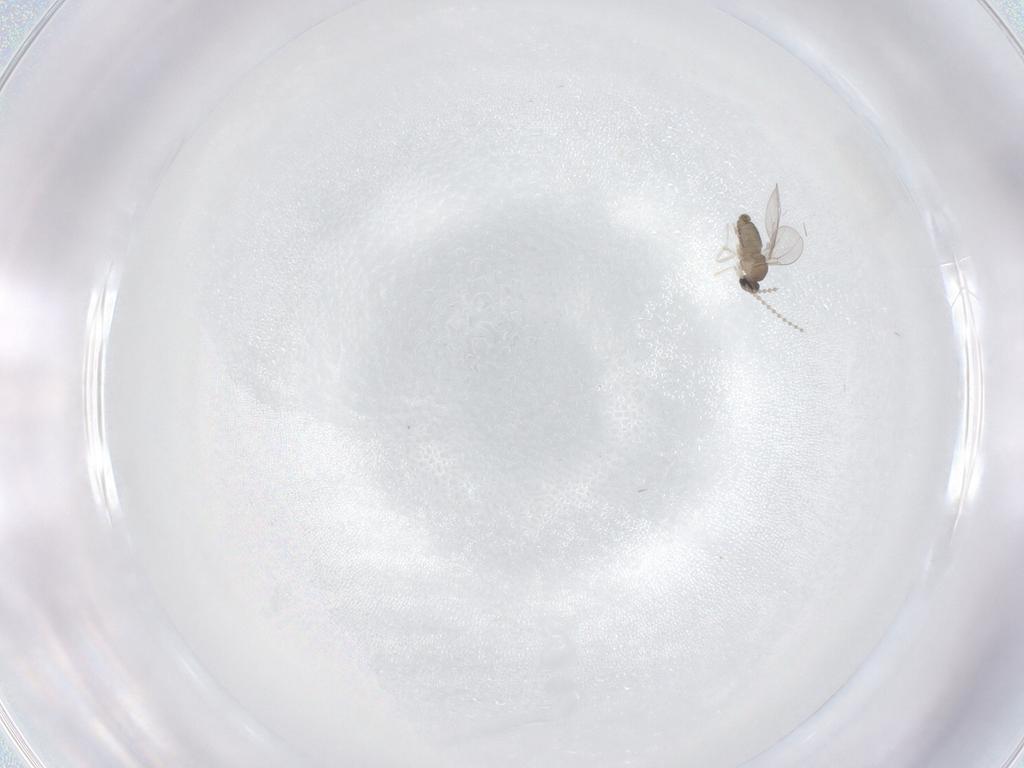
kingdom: Animalia
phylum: Arthropoda
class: Insecta
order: Diptera
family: Cecidomyiidae
